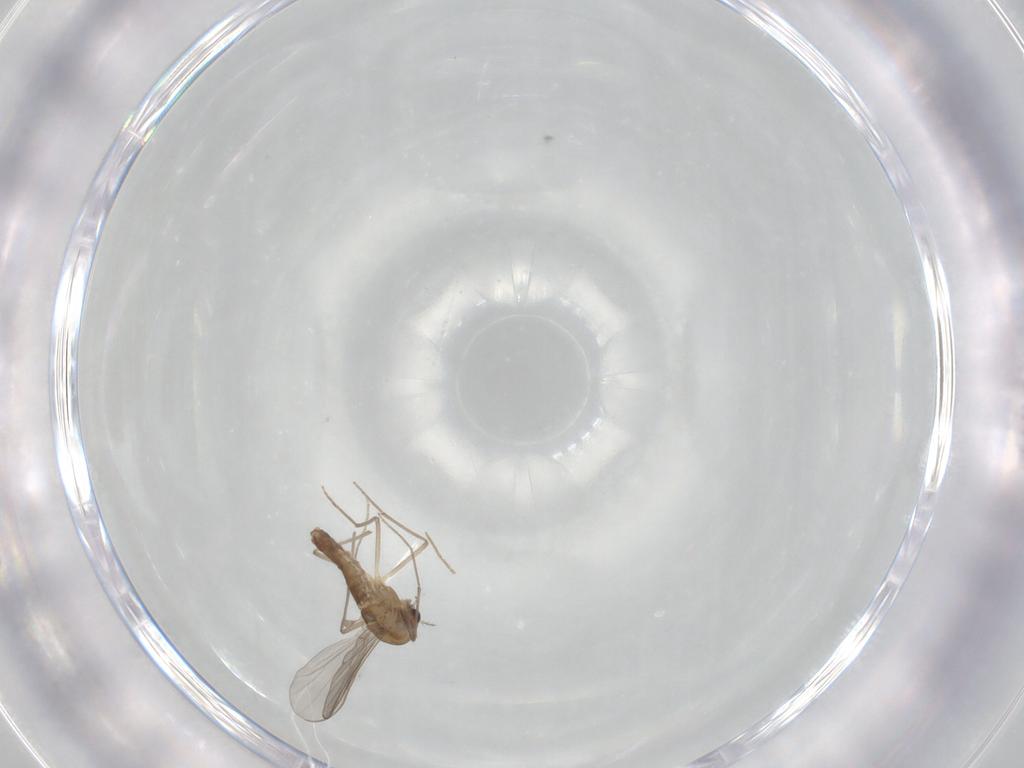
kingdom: Animalia
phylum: Arthropoda
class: Insecta
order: Diptera
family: Chironomidae
